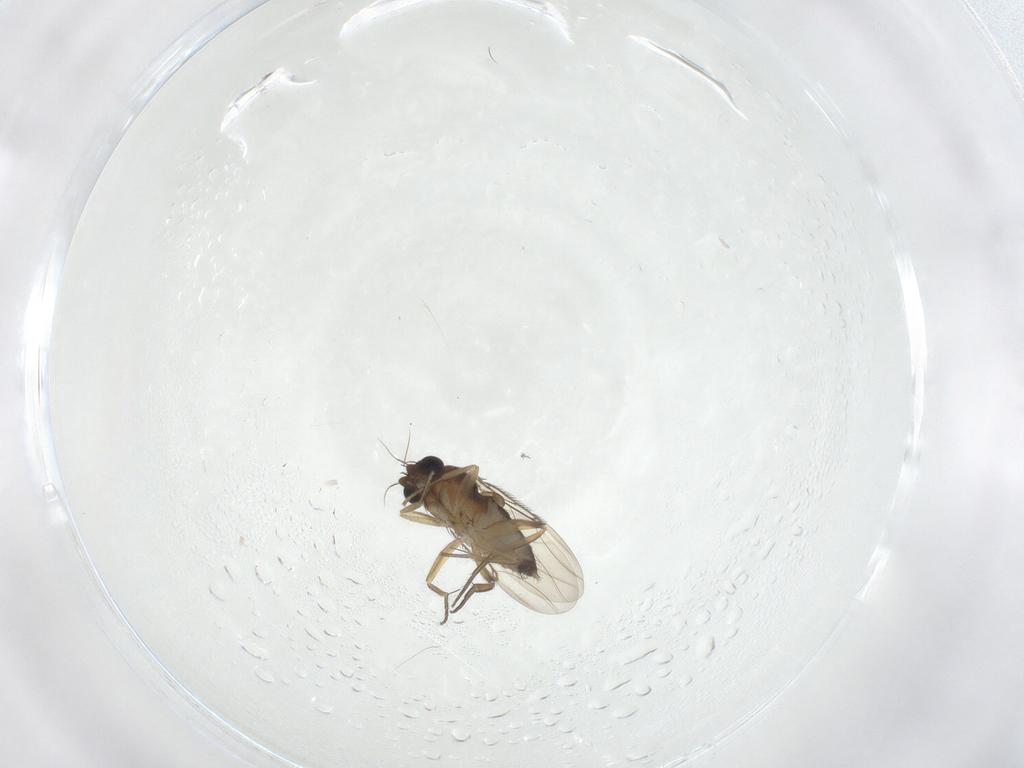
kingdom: Animalia
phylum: Arthropoda
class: Insecta
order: Diptera
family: Phoridae
